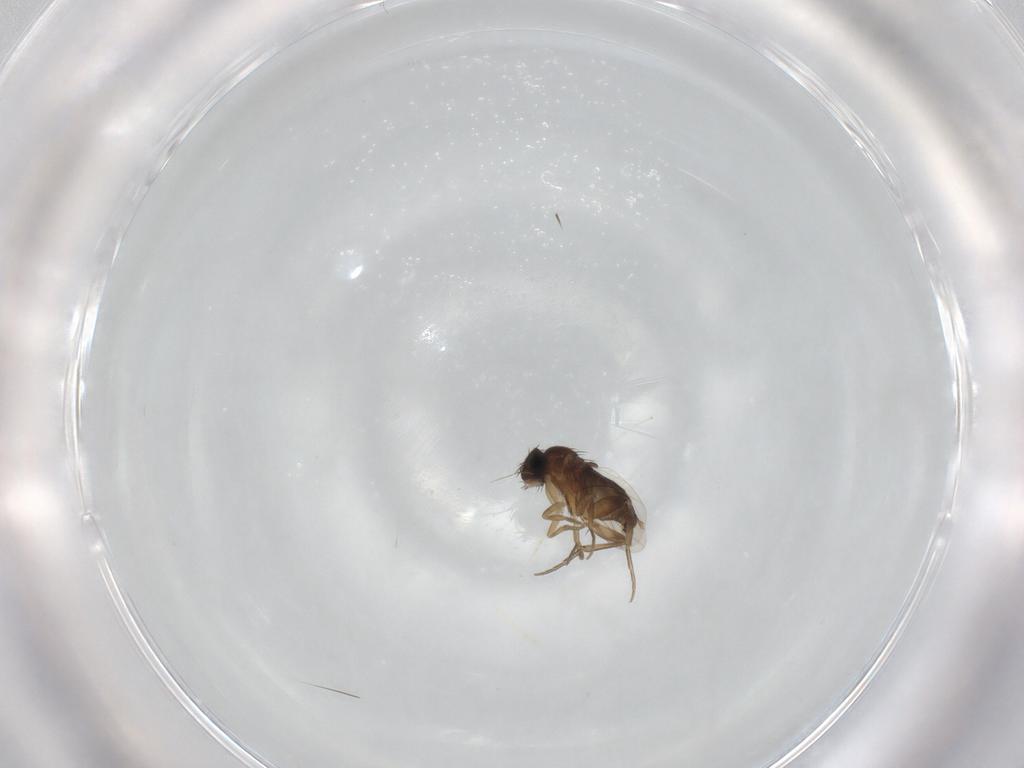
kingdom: Animalia
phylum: Arthropoda
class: Insecta
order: Diptera
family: Cecidomyiidae
